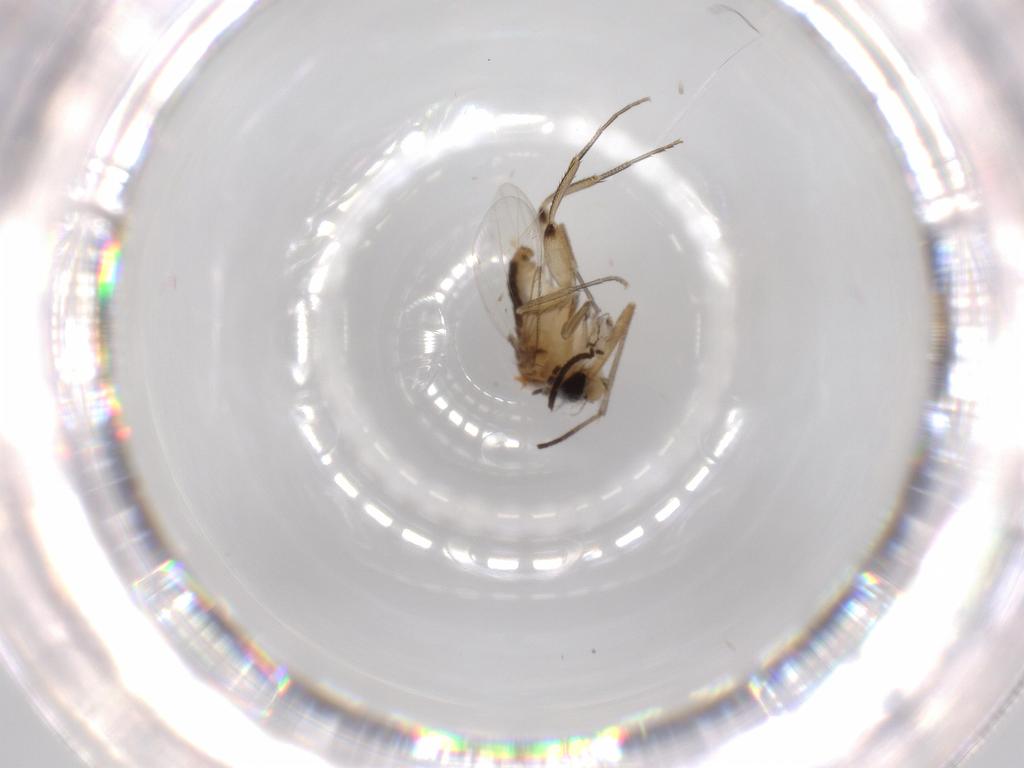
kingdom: Animalia
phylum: Arthropoda
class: Insecta
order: Diptera
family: Phoridae
